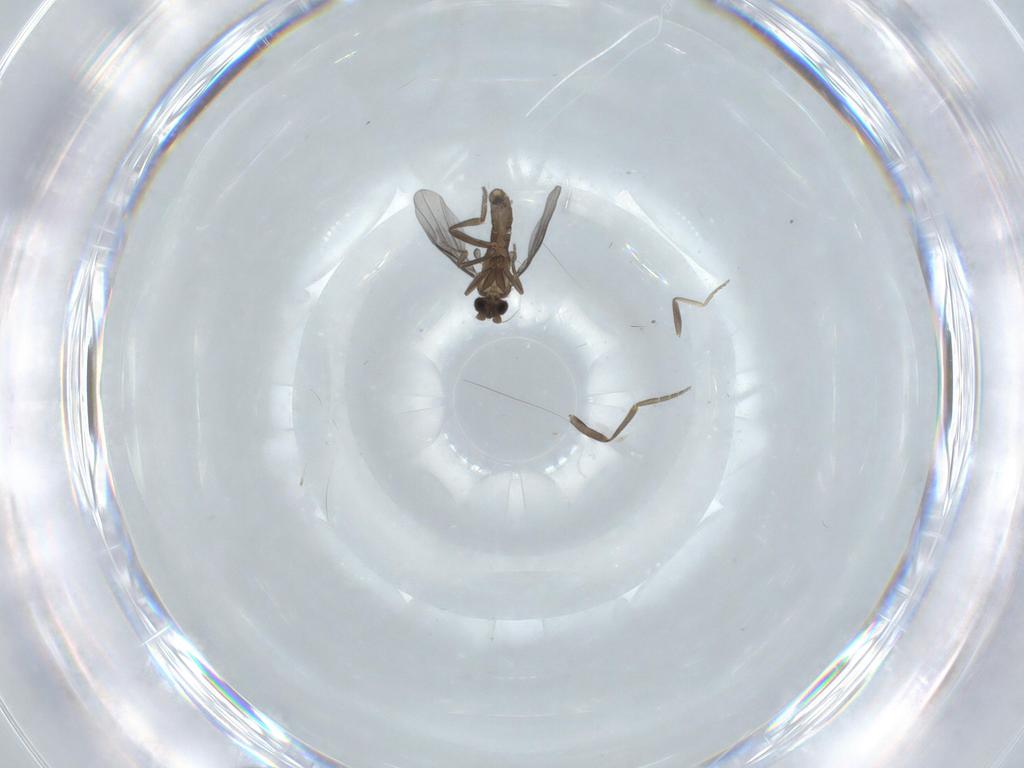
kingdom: Animalia
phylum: Arthropoda
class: Insecta
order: Diptera
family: Phoridae
